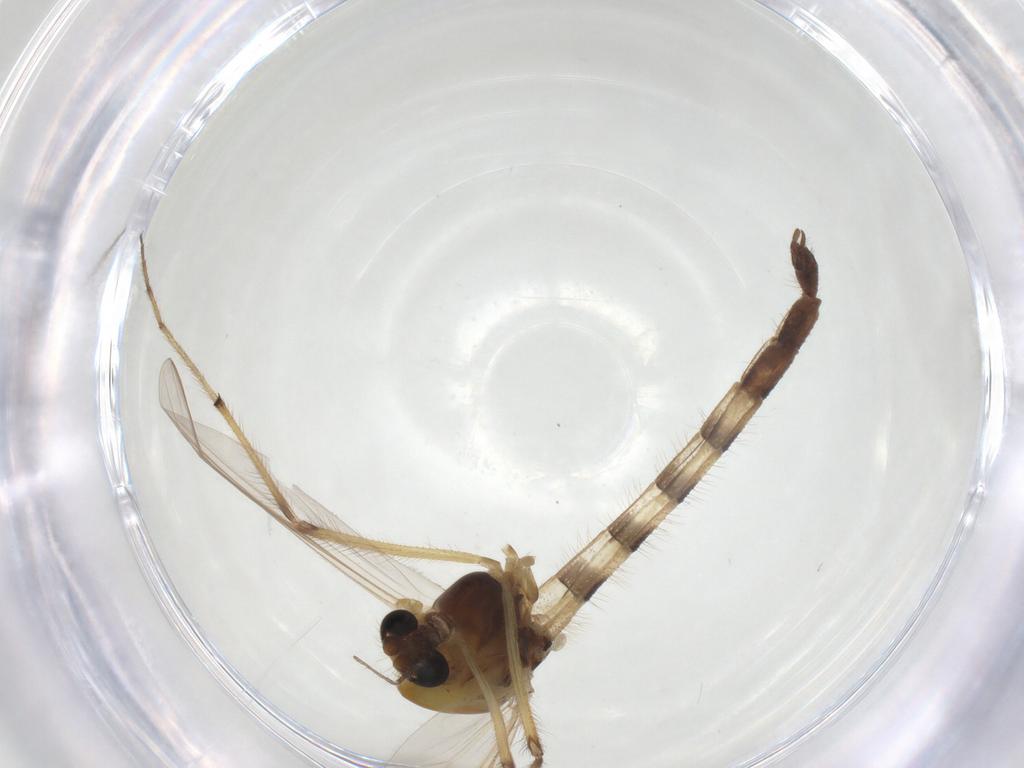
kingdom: Animalia
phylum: Arthropoda
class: Insecta
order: Diptera
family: Chironomidae
